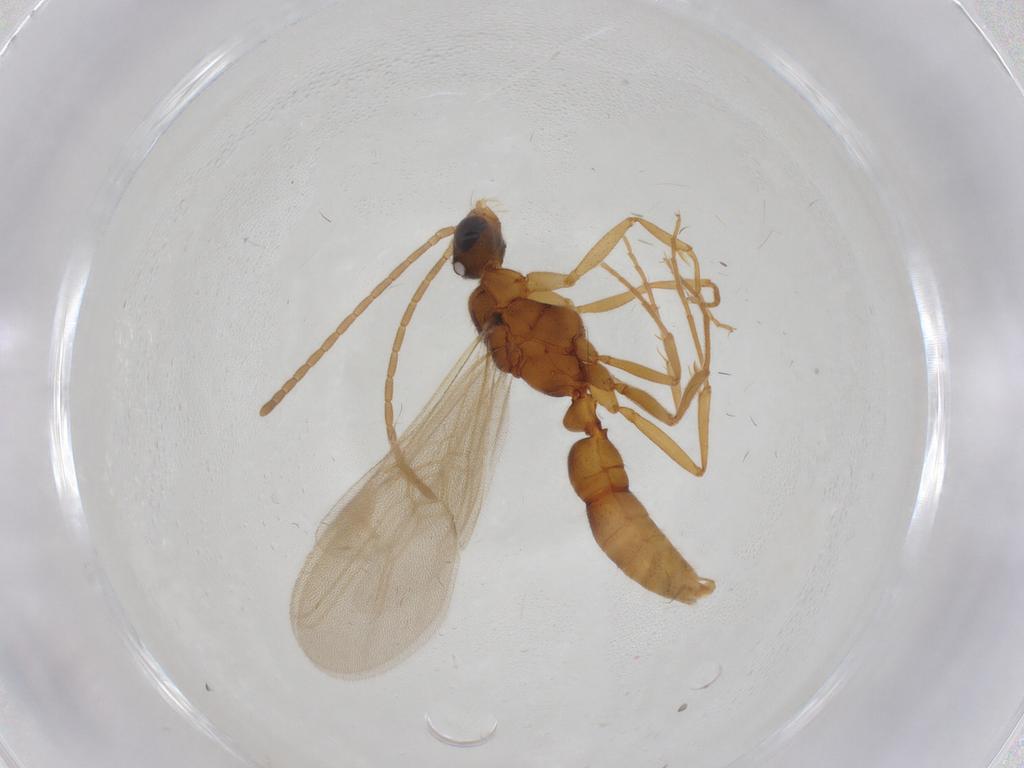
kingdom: Animalia
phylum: Arthropoda
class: Insecta
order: Hymenoptera
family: Formicidae
